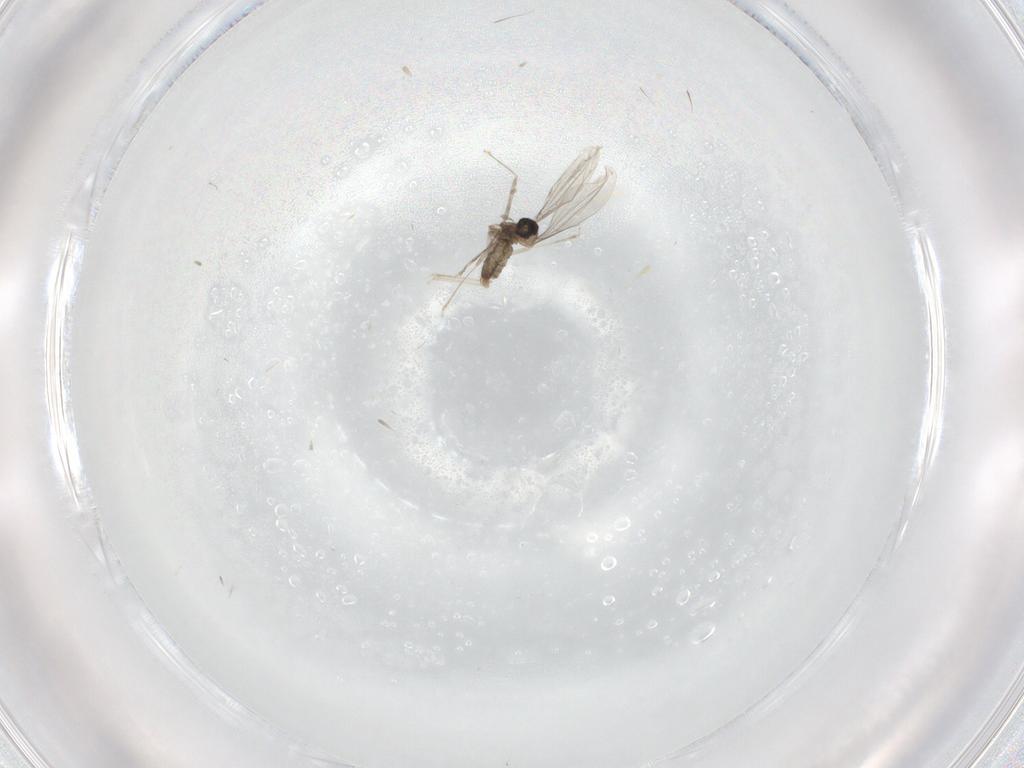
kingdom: Animalia
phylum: Arthropoda
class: Insecta
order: Diptera
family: Cecidomyiidae
